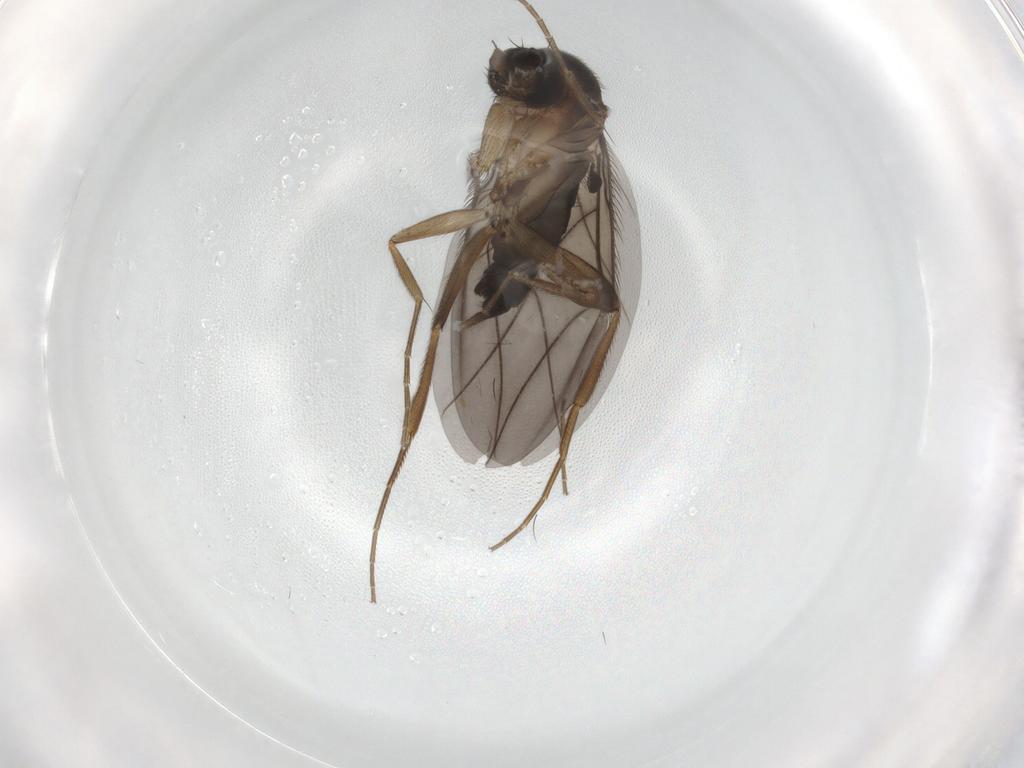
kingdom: Animalia
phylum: Arthropoda
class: Insecta
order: Diptera
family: Phoridae
